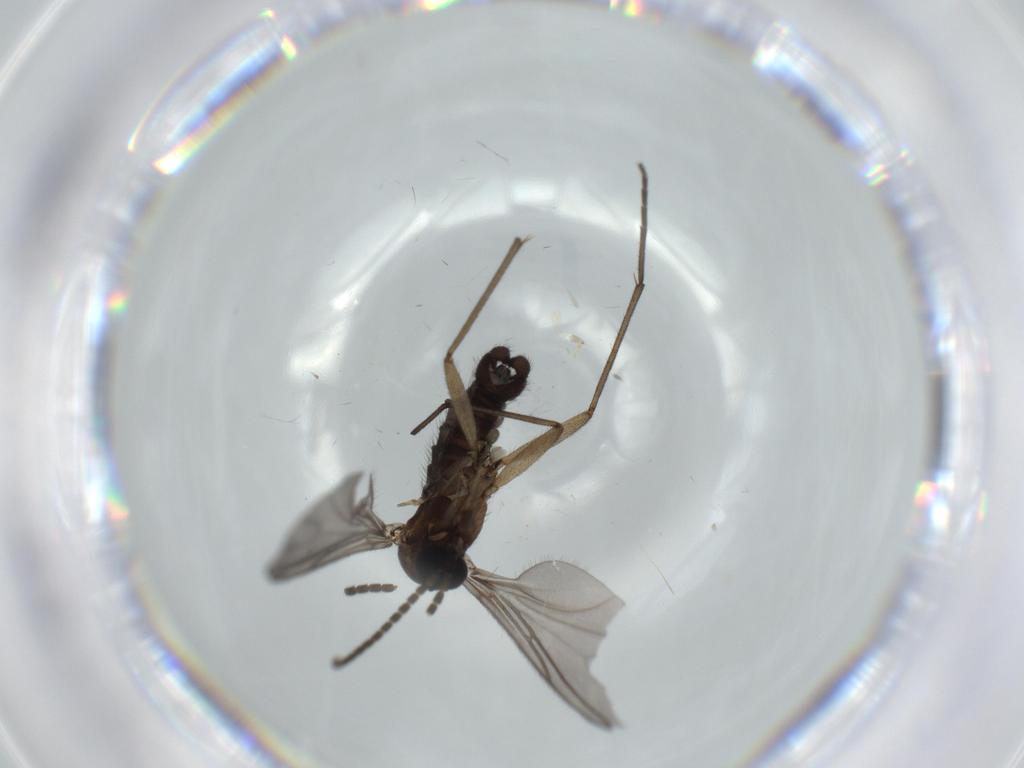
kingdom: Animalia
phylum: Arthropoda
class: Insecta
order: Diptera
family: Sciaridae
